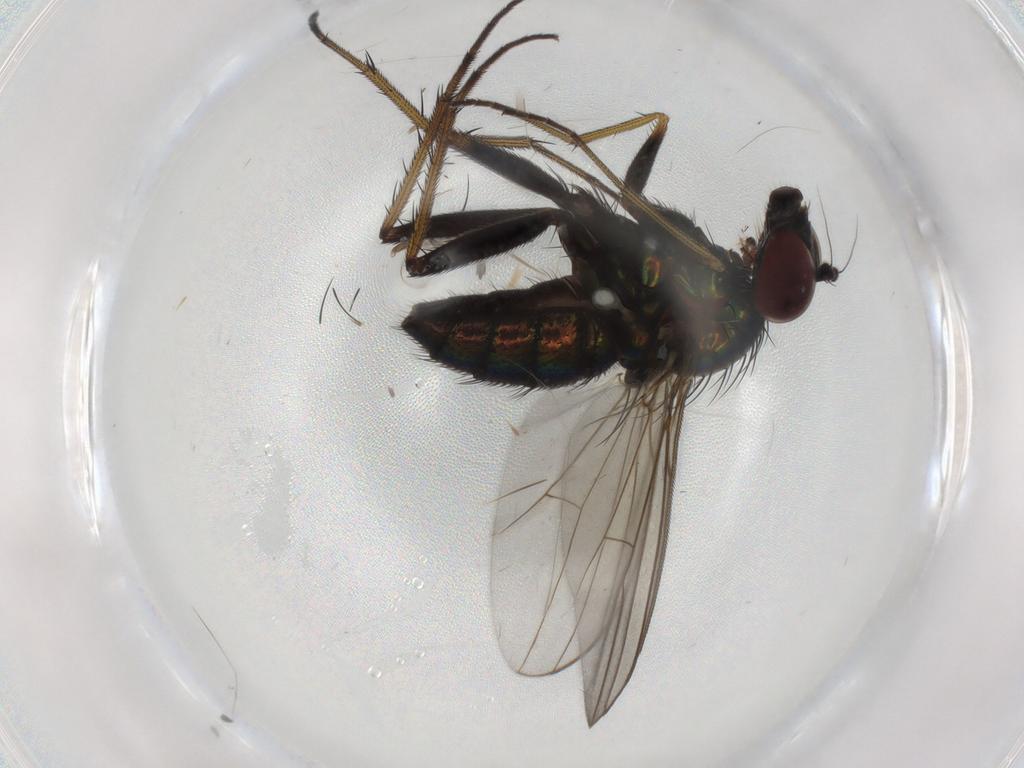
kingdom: Animalia
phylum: Arthropoda
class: Insecta
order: Diptera
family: Dolichopodidae
